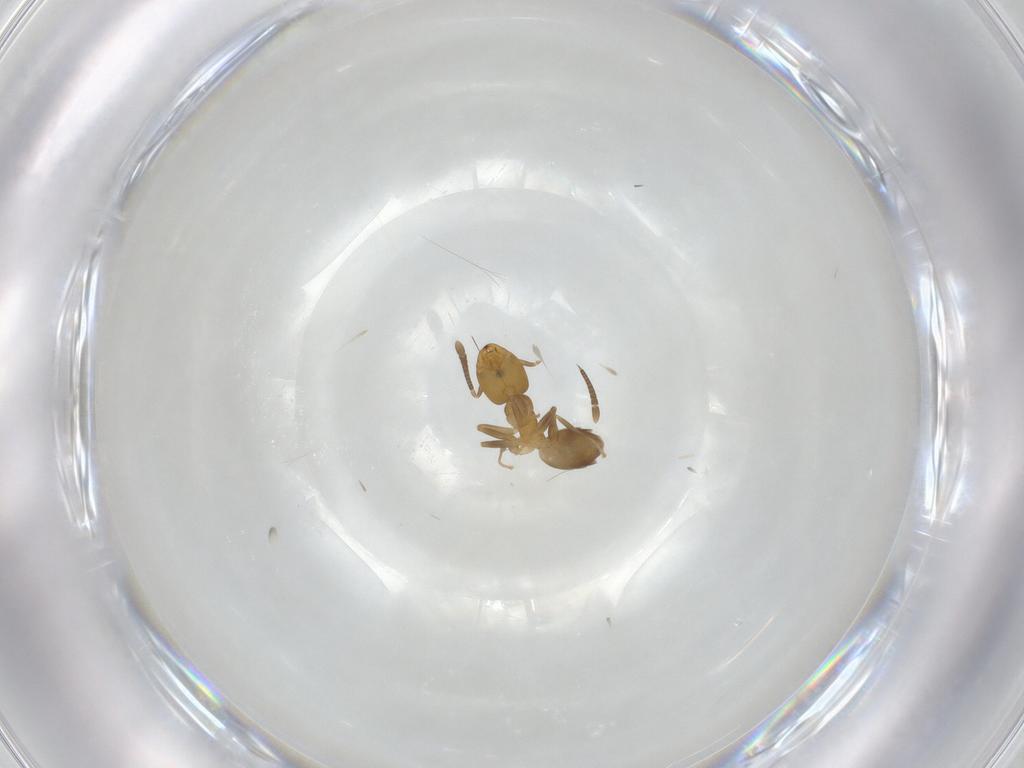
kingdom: Animalia
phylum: Arthropoda
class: Insecta
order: Hymenoptera
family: Formicidae
